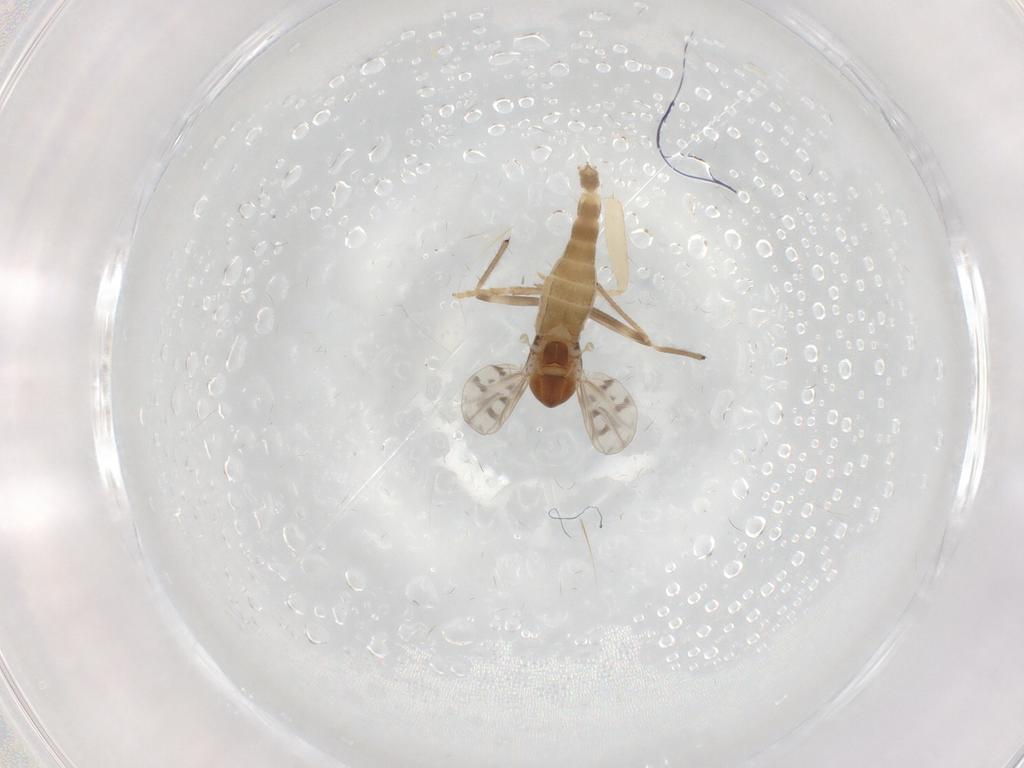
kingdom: Animalia
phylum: Arthropoda
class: Insecta
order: Diptera
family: Chironomidae
